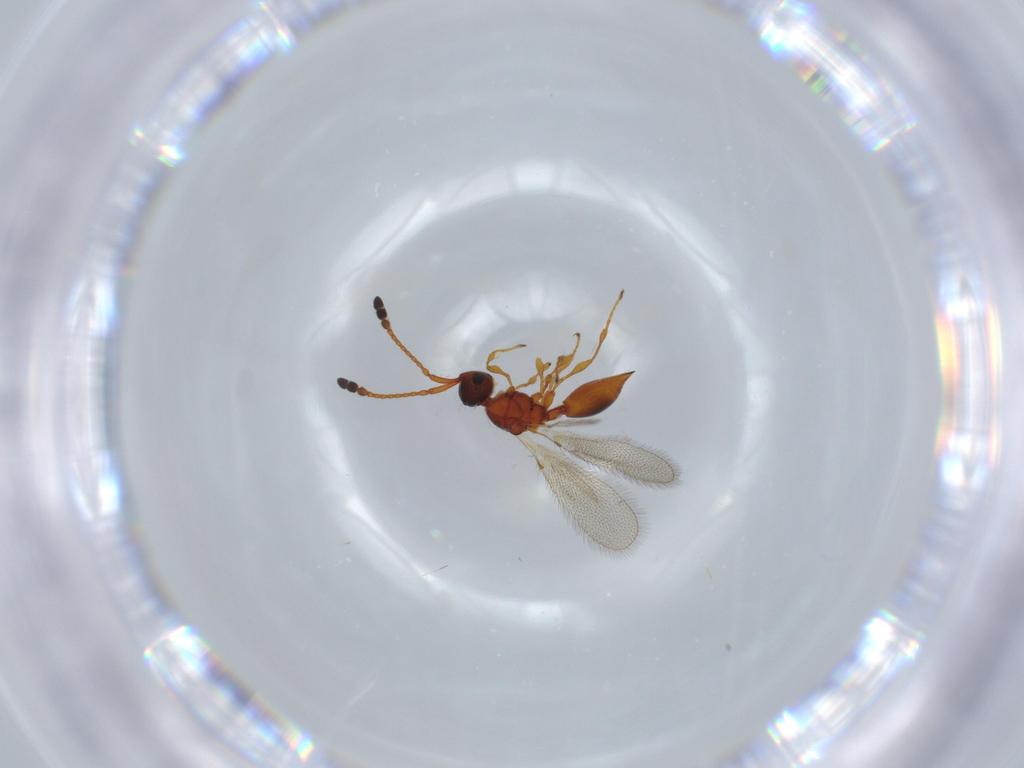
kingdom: Animalia
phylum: Arthropoda
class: Insecta
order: Hymenoptera
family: Diapriidae
